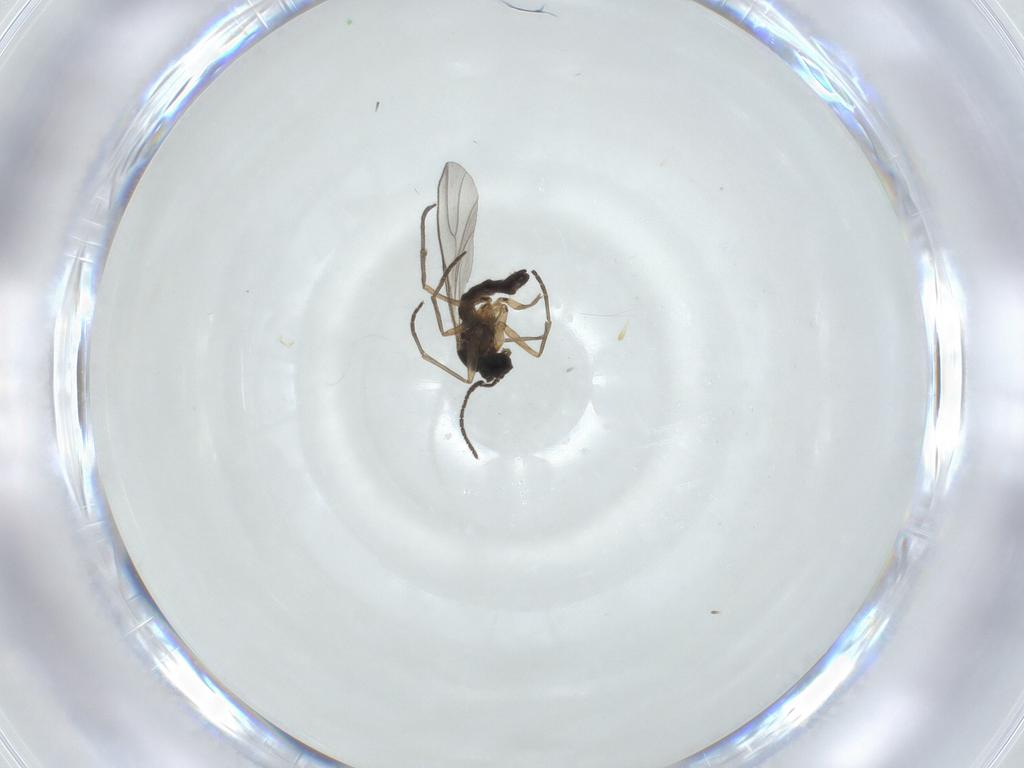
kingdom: Animalia
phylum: Arthropoda
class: Insecta
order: Diptera
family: Sciaridae
